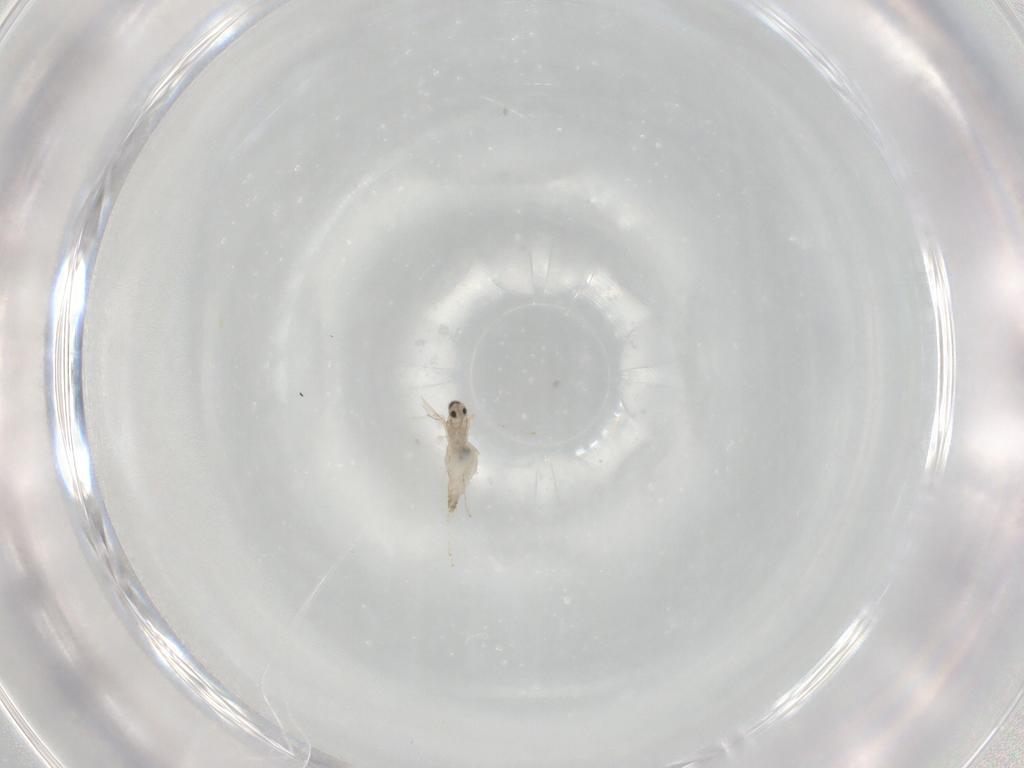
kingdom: Animalia
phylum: Arthropoda
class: Insecta
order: Diptera
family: Cecidomyiidae
